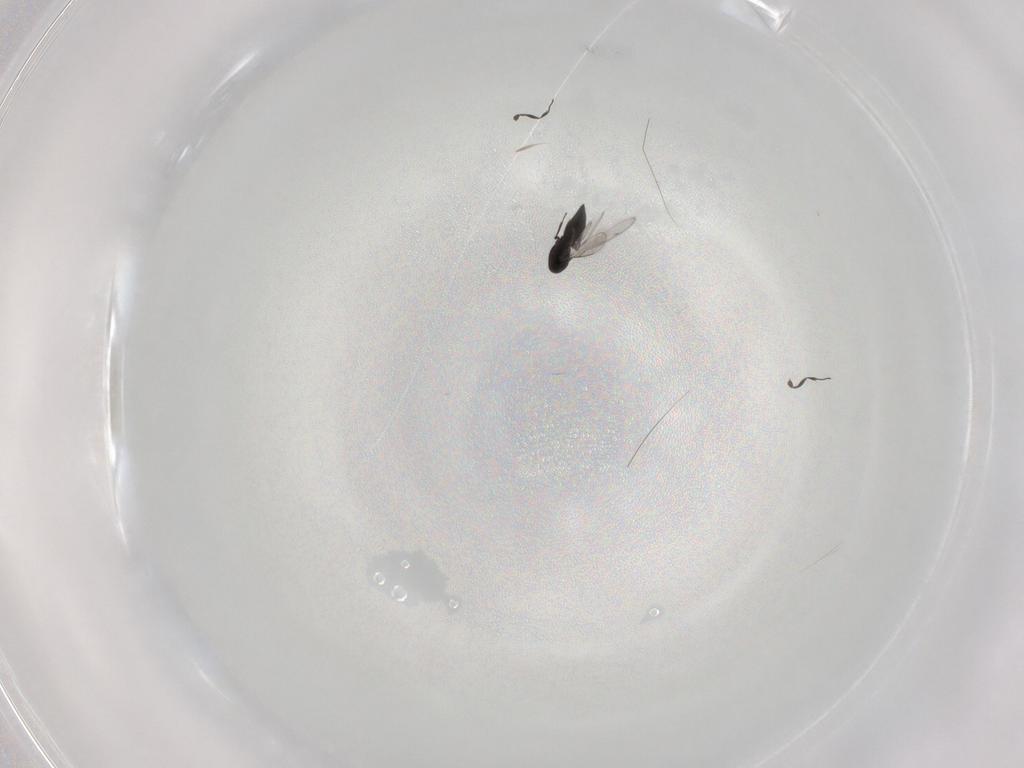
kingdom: Animalia
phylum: Arthropoda
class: Insecta
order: Hymenoptera
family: Scelionidae
